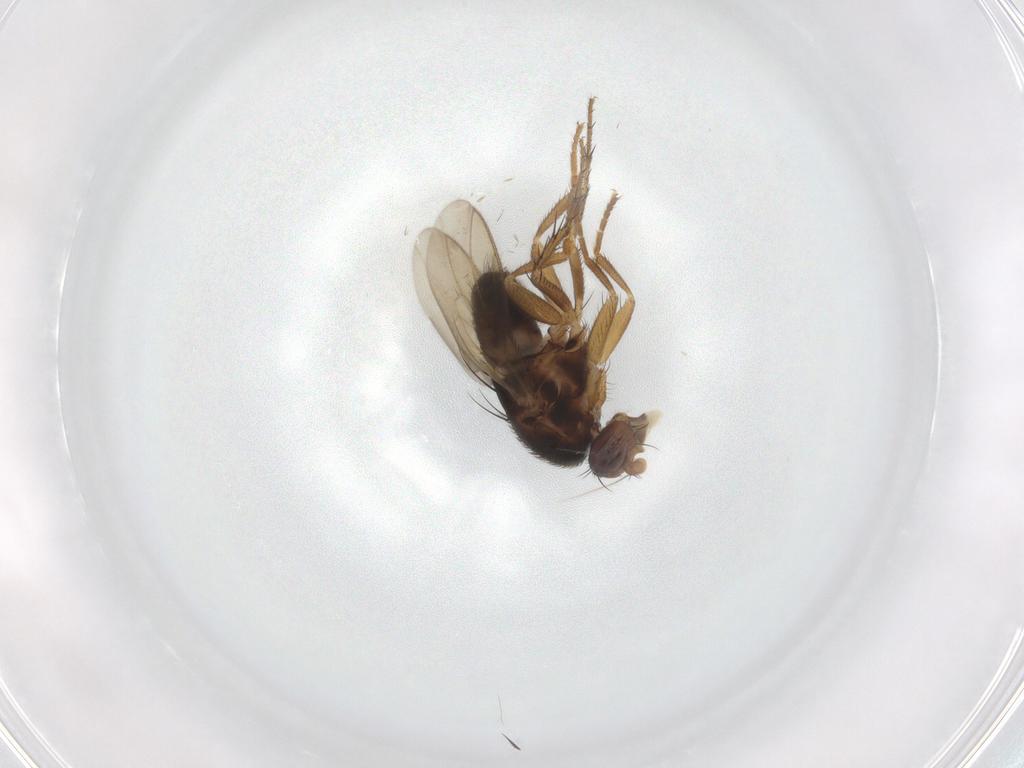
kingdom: Animalia
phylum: Arthropoda
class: Insecta
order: Diptera
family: Sphaeroceridae
